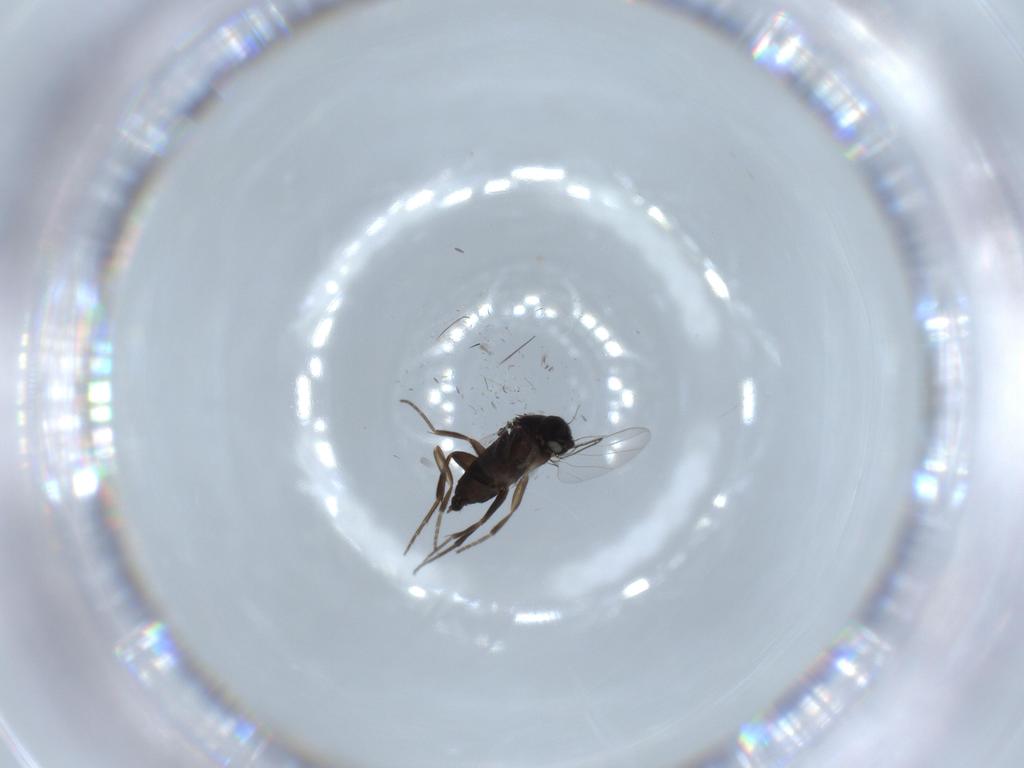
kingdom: Animalia
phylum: Arthropoda
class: Insecta
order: Diptera
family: Phoridae
